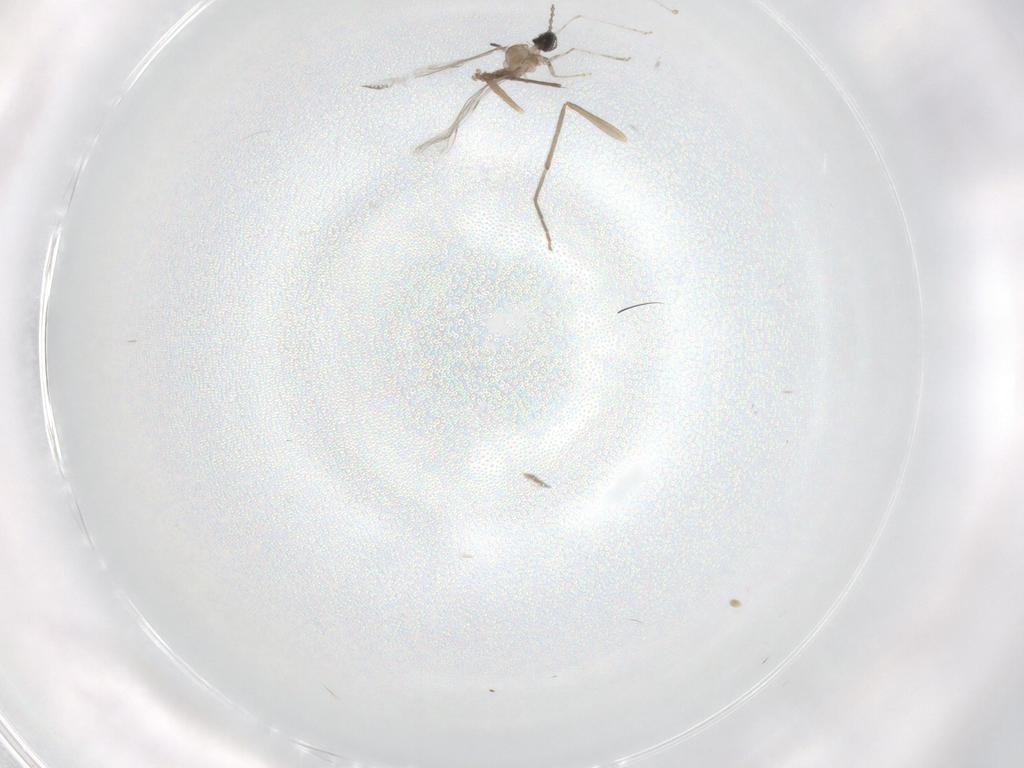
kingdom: Animalia
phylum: Arthropoda
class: Insecta
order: Diptera
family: Cecidomyiidae
